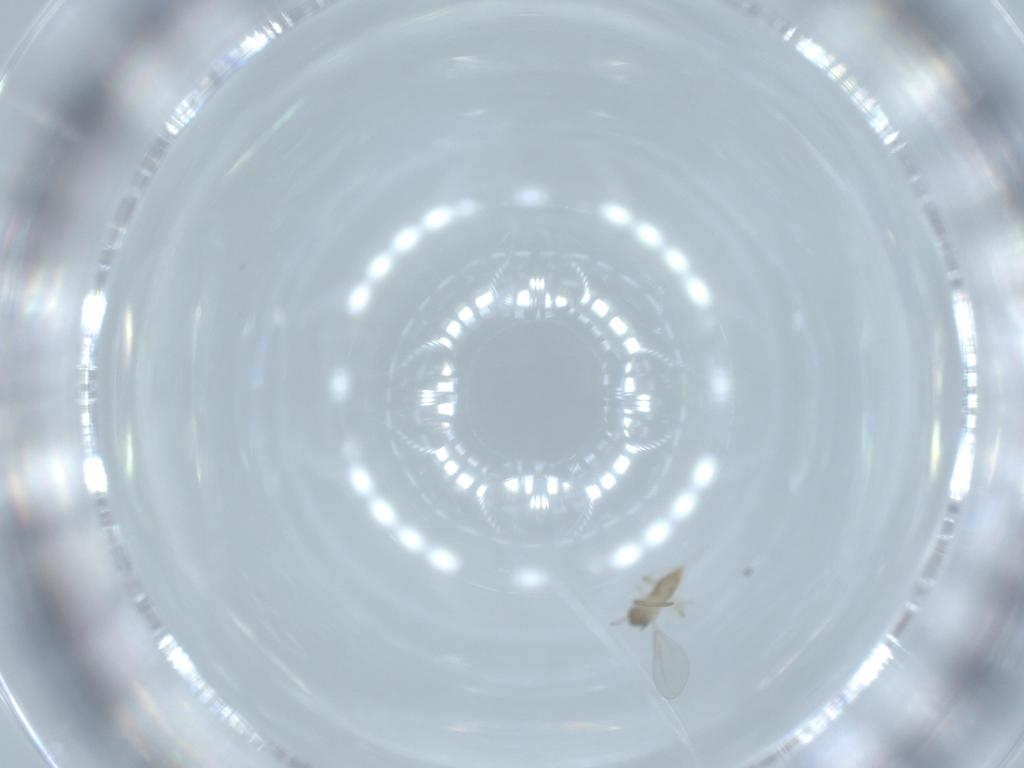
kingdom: Animalia
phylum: Arthropoda
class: Insecta
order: Diptera
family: Cecidomyiidae
